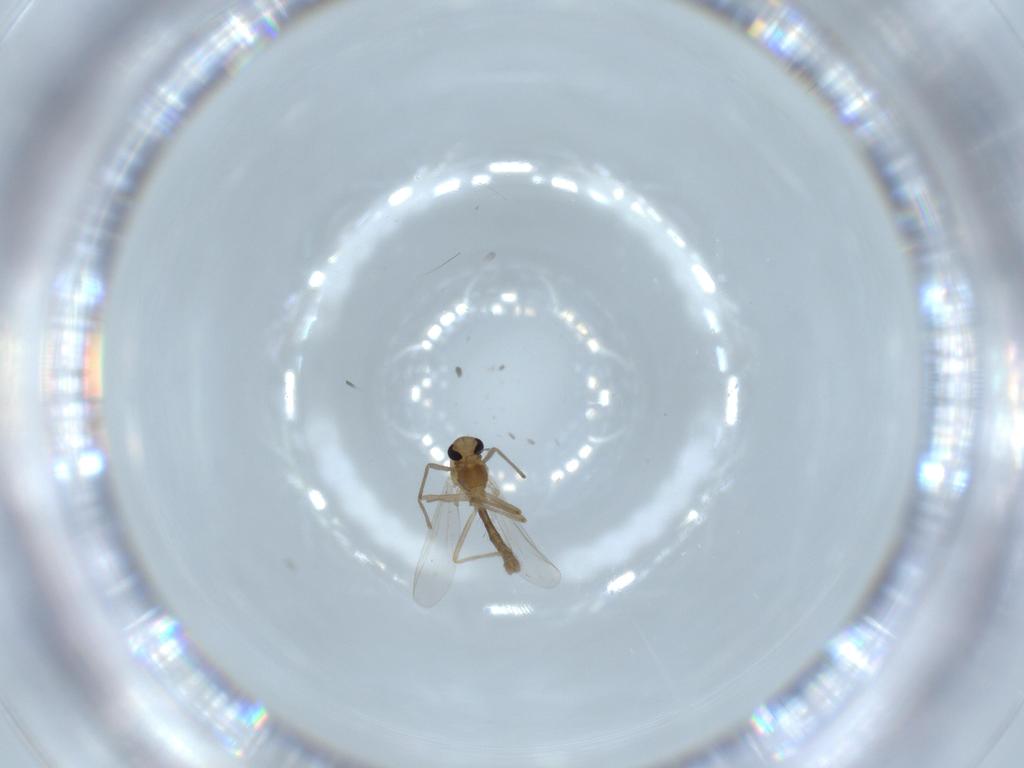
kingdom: Animalia
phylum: Arthropoda
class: Insecta
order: Diptera
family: Chironomidae
